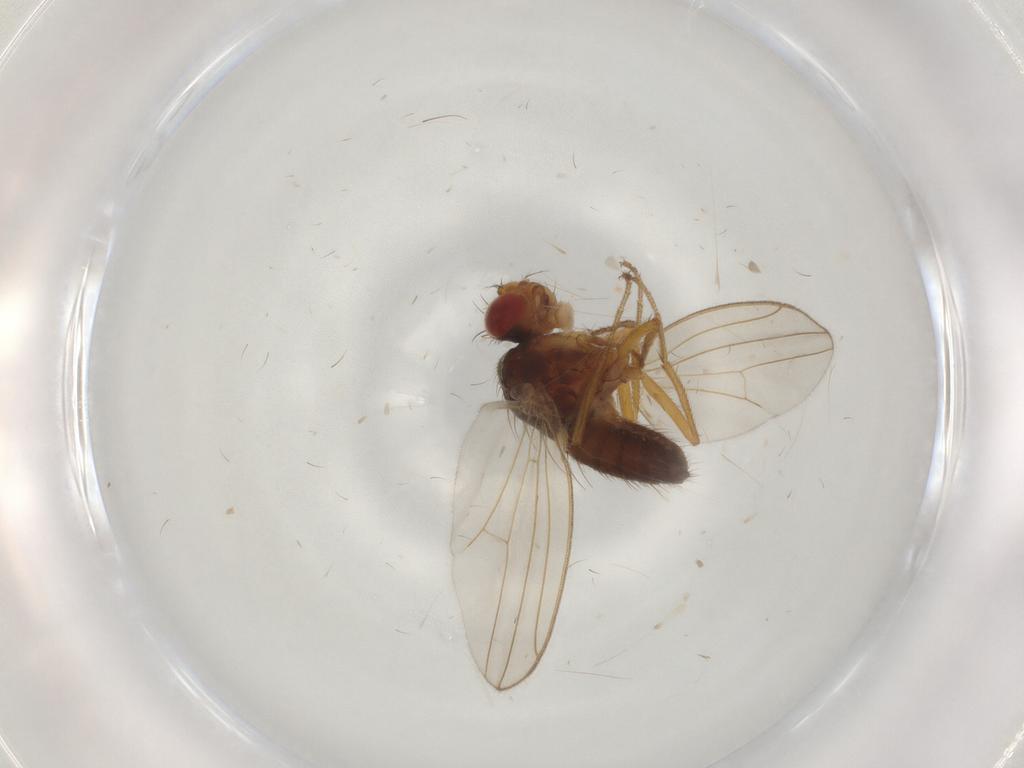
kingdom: Animalia
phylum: Arthropoda
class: Insecta
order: Diptera
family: Drosophilidae
